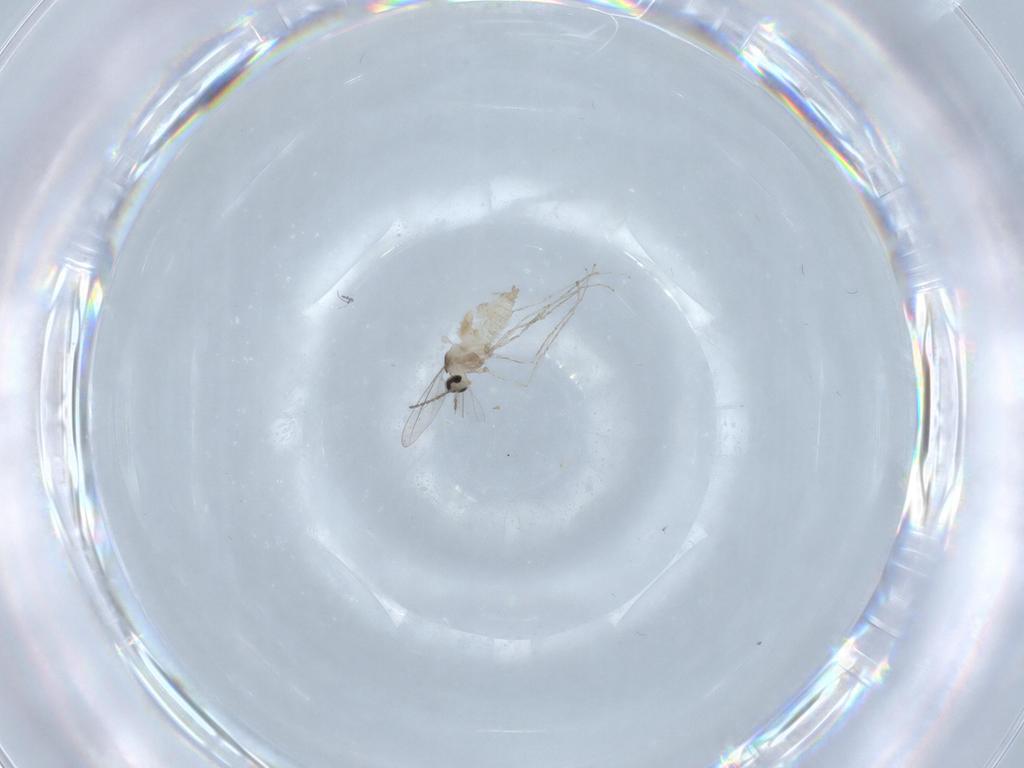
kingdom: Animalia
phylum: Arthropoda
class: Insecta
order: Diptera
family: Cecidomyiidae
